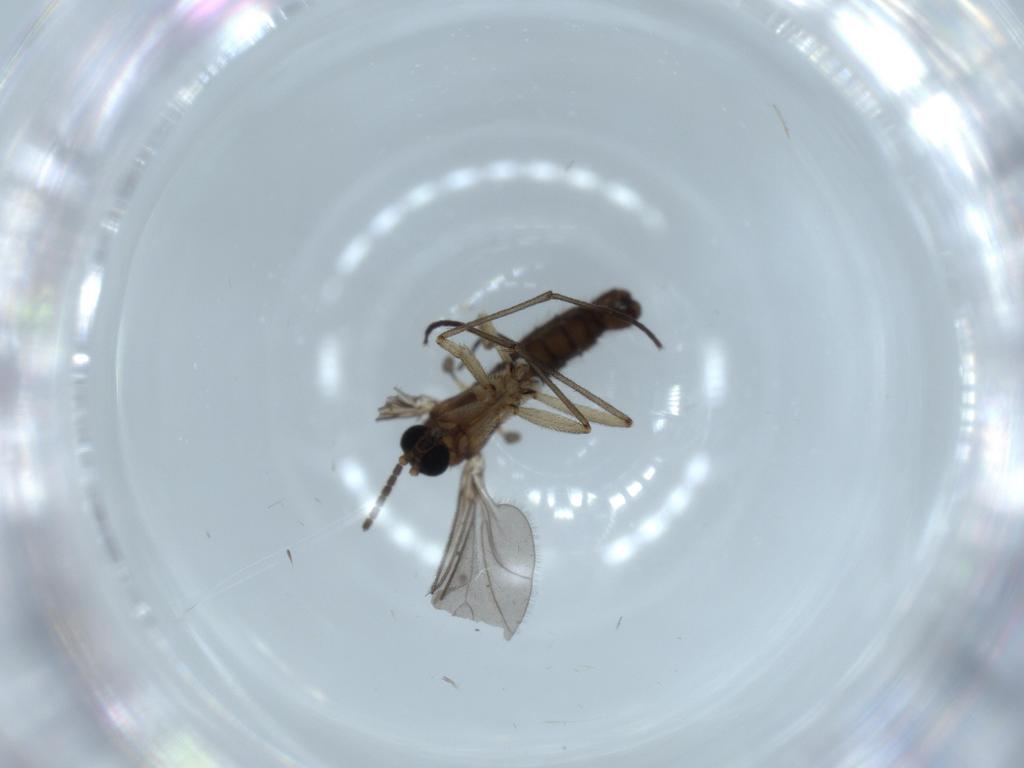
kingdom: Animalia
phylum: Arthropoda
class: Insecta
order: Diptera
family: Sciaridae
